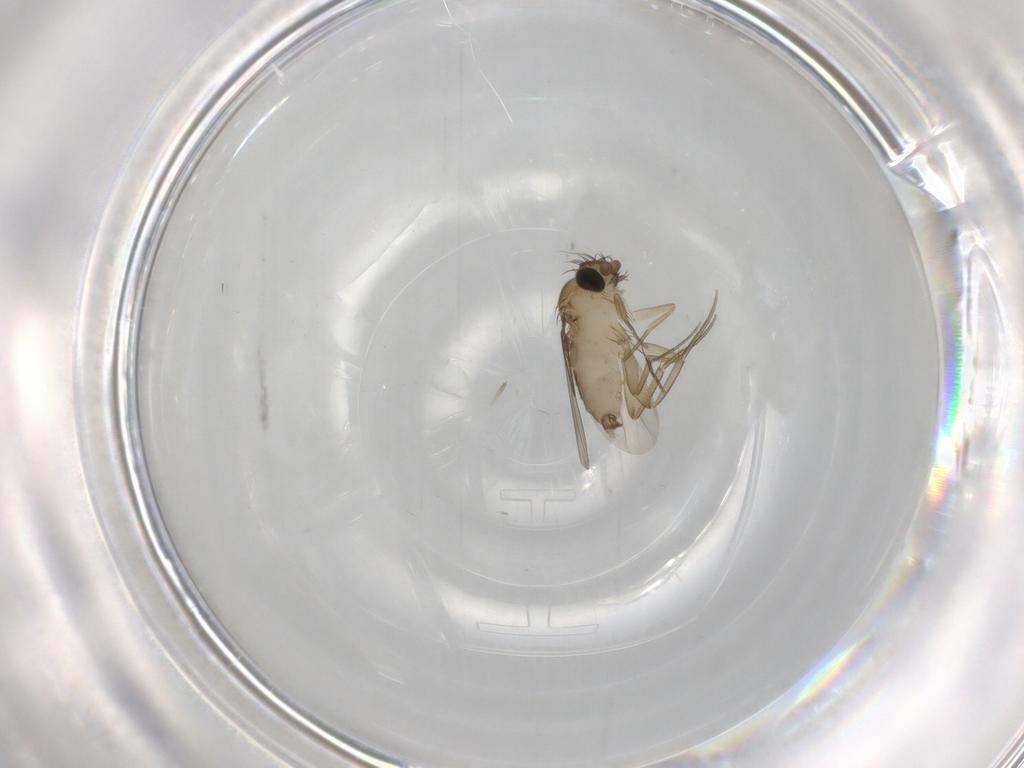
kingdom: Animalia
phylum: Arthropoda
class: Insecta
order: Diptera
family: Phoridae
